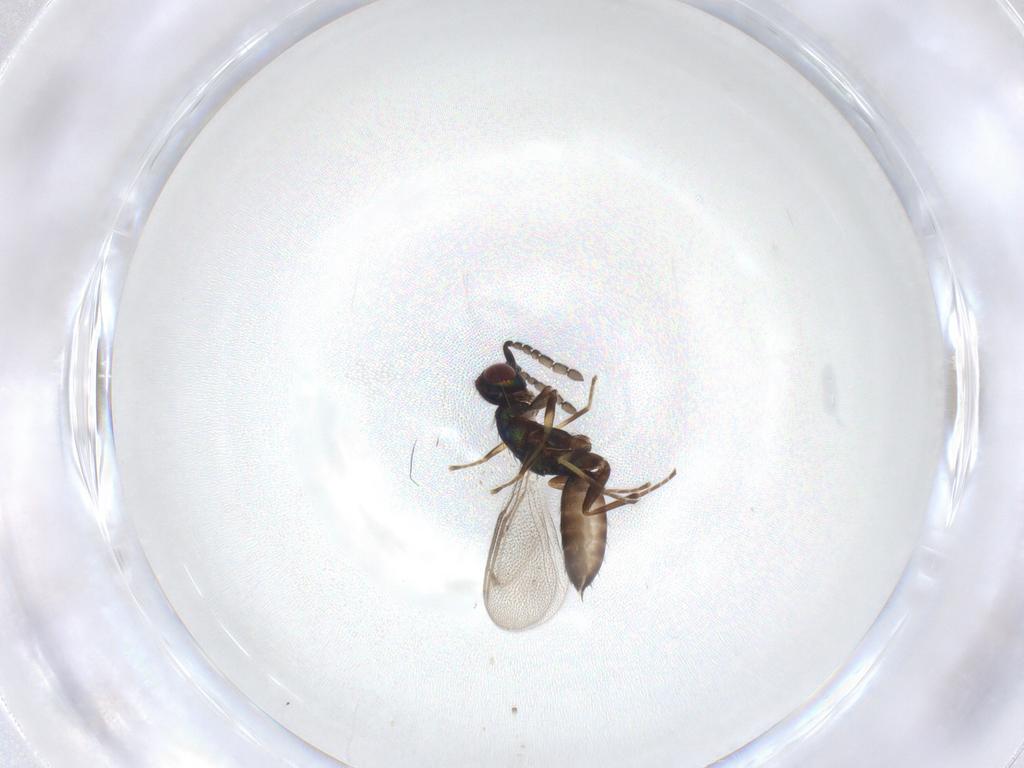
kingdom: Animalia
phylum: Arthropoda
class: Insecta
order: Hymenoptera
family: Eulophidae
